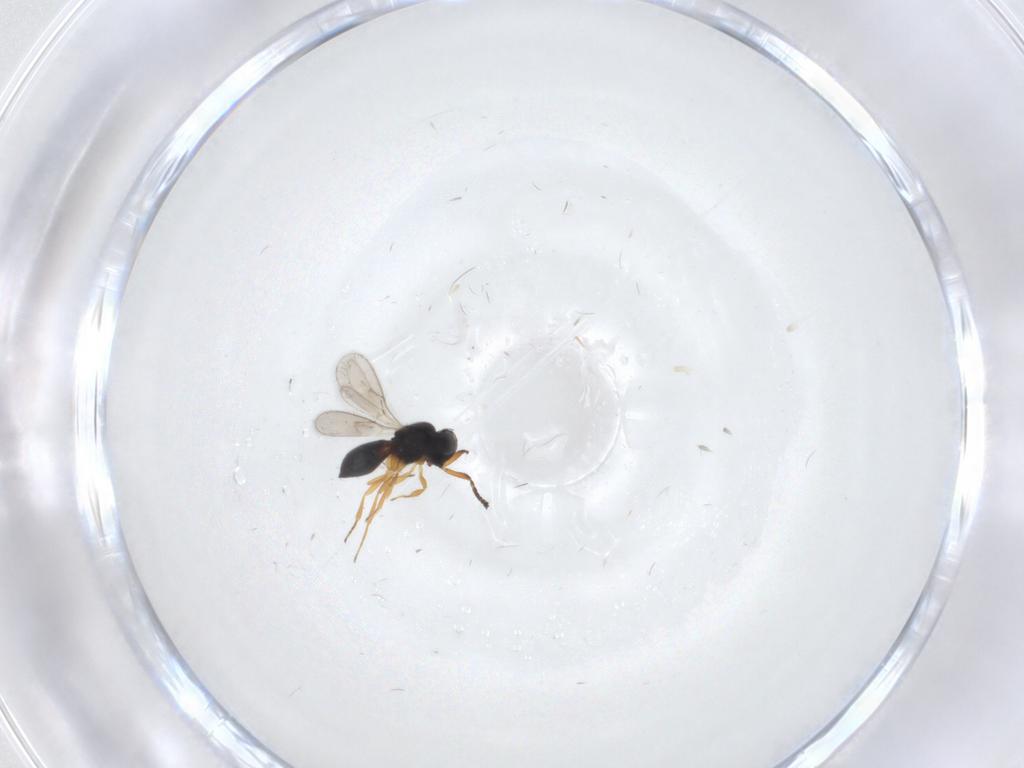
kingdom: Animalia
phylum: Arthropoda
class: Insecta
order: Hymenoptera
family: Scelionidae
